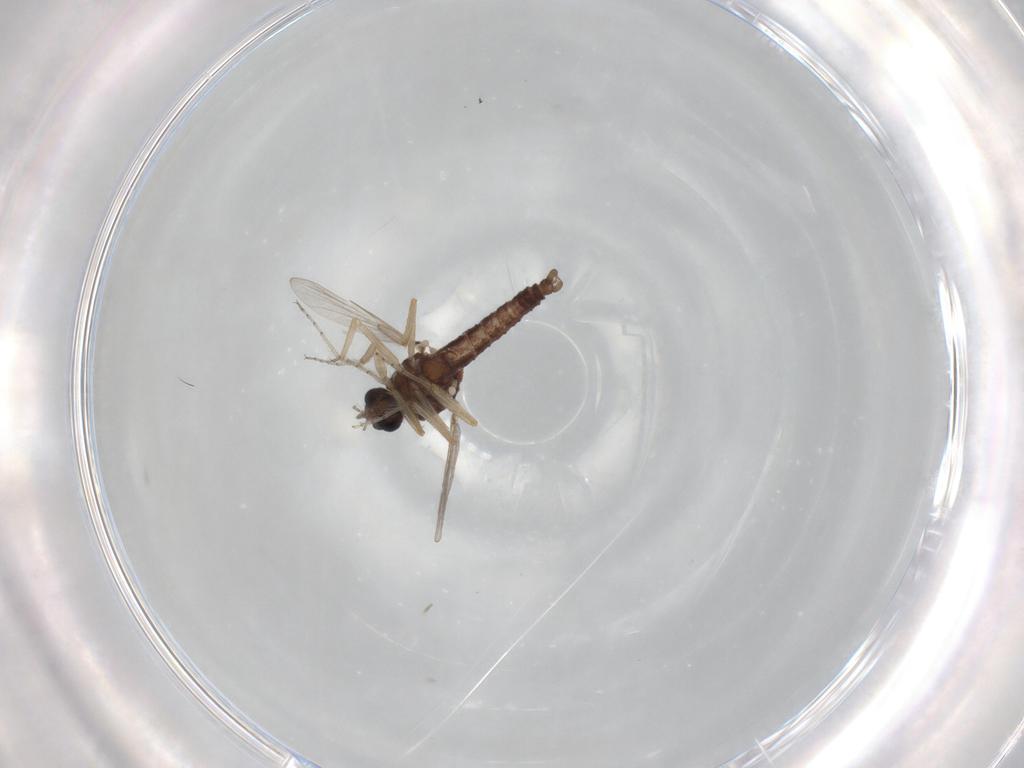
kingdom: Animalia
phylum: Arthropoda
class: Insecta
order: Diptera
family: Ceratopogonidae
